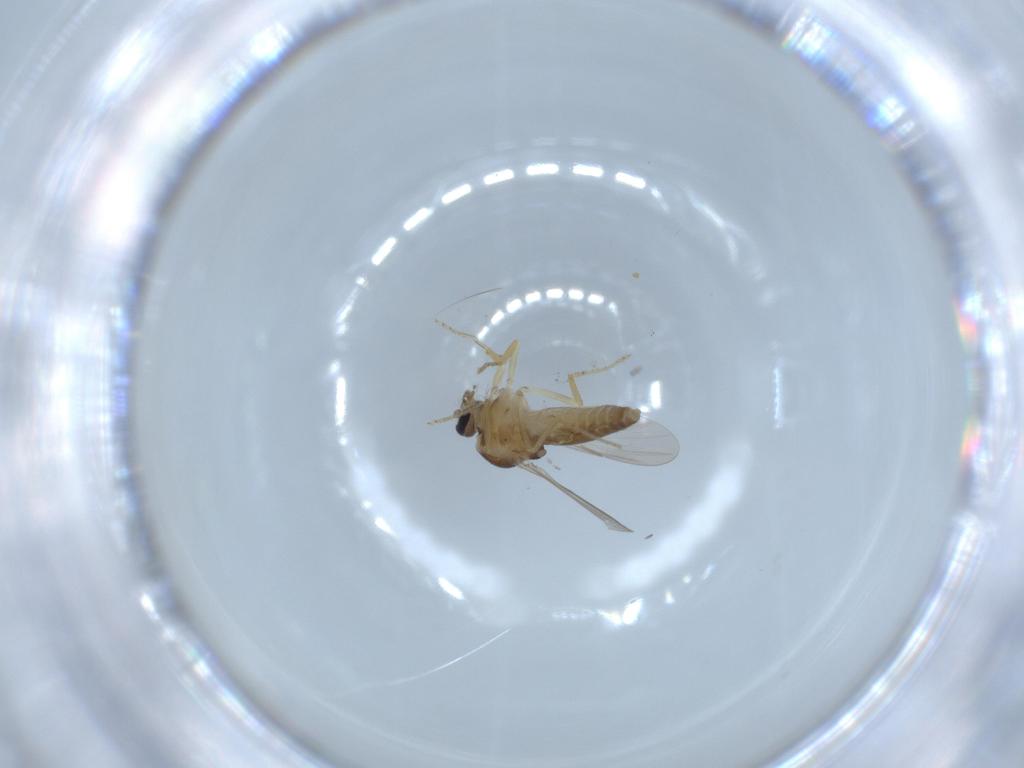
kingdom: Animalia
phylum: Arthropoda
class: Insecta
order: Diptera
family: Ceratopogonidae
